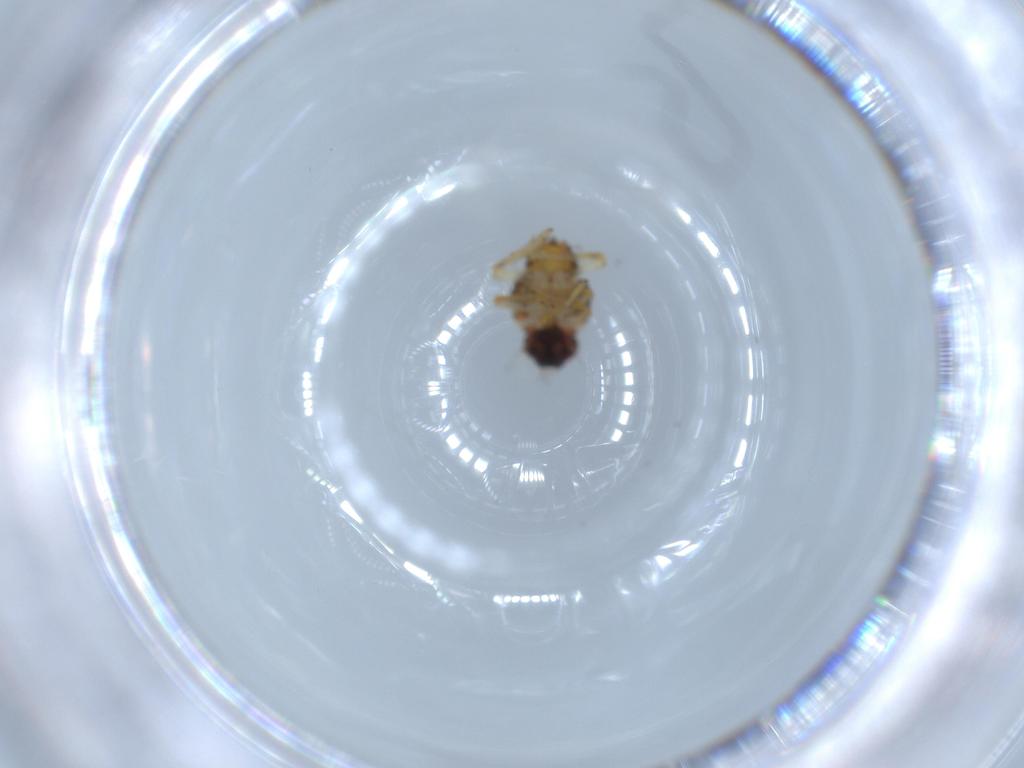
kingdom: Animalia
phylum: Arthropoda
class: Insecta
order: Hemiptera
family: Issidae
